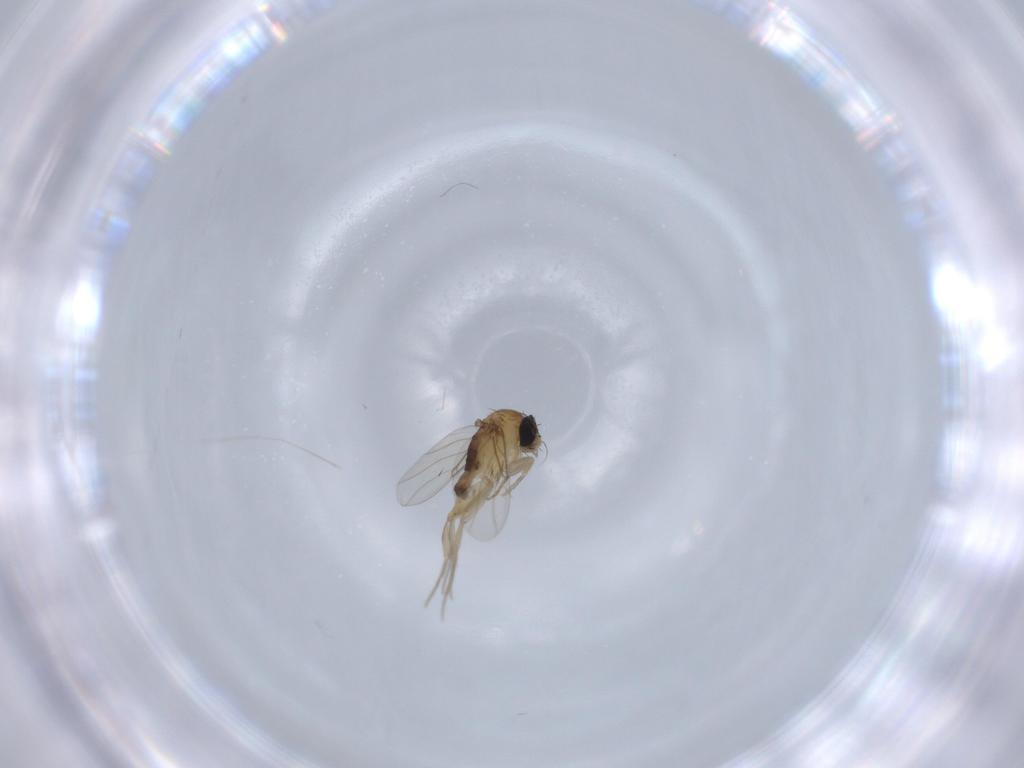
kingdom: Animalia
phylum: Arthropoda
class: Insecta
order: Diptera
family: Phoridae
